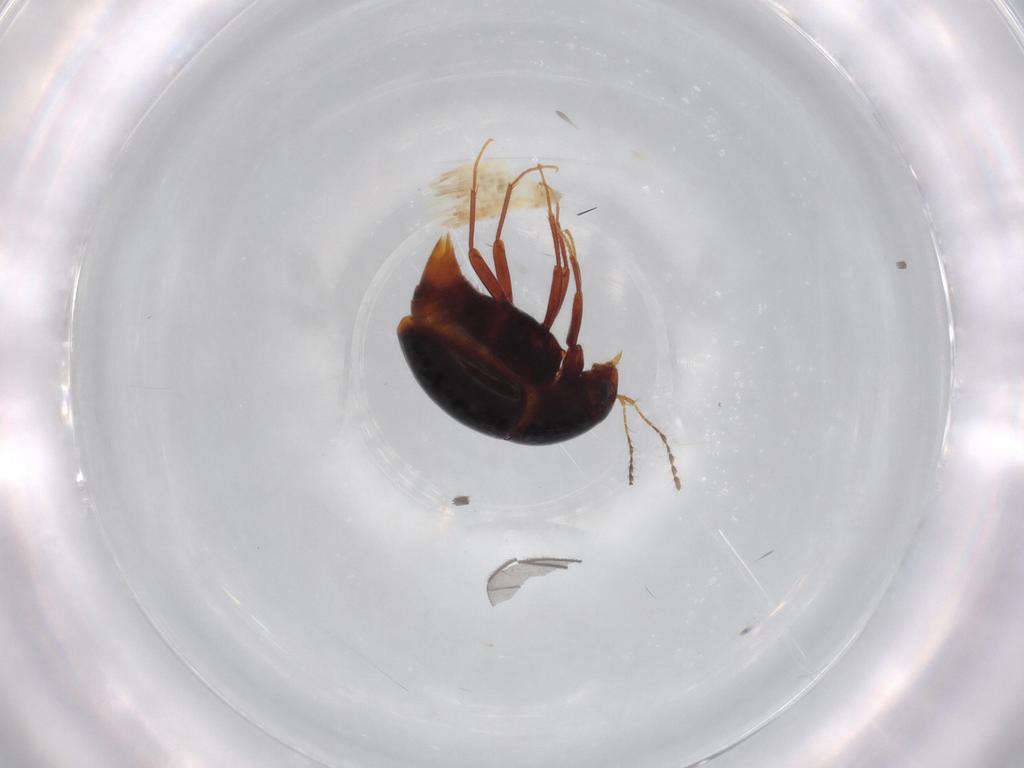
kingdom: Animalia
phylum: Arthropoda
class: Insecta
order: Coleoptera
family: Staphylinidae
